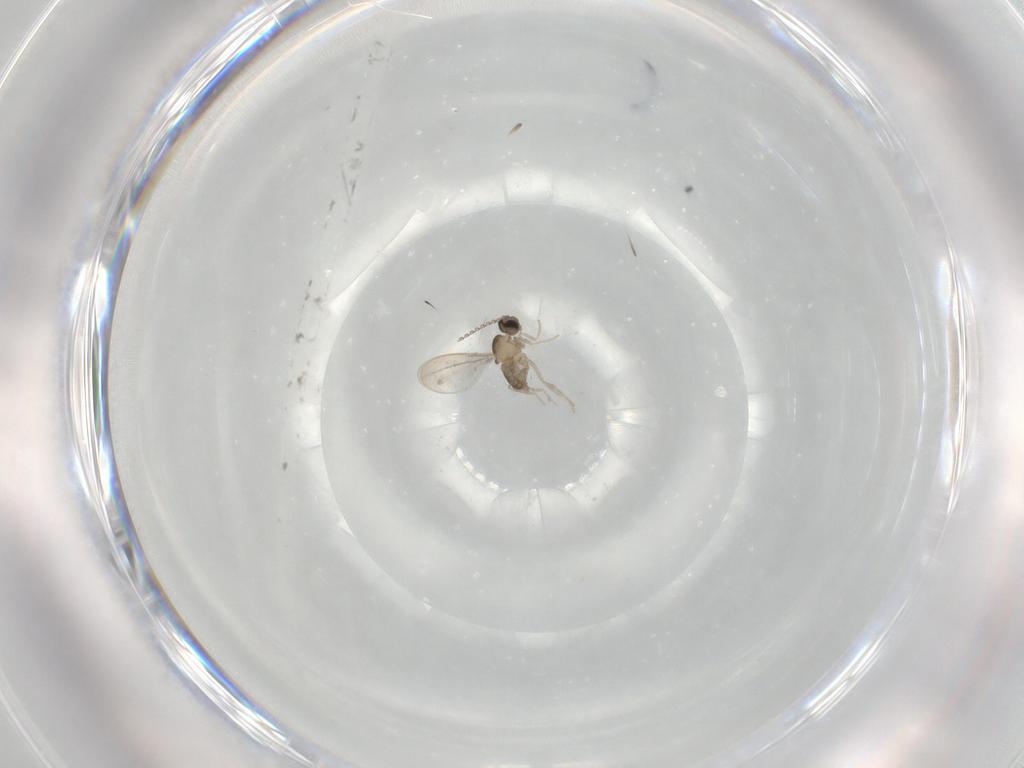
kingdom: Animalia
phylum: Arthropoda
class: Insecta
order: Diptera
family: Cecidomyiidae
